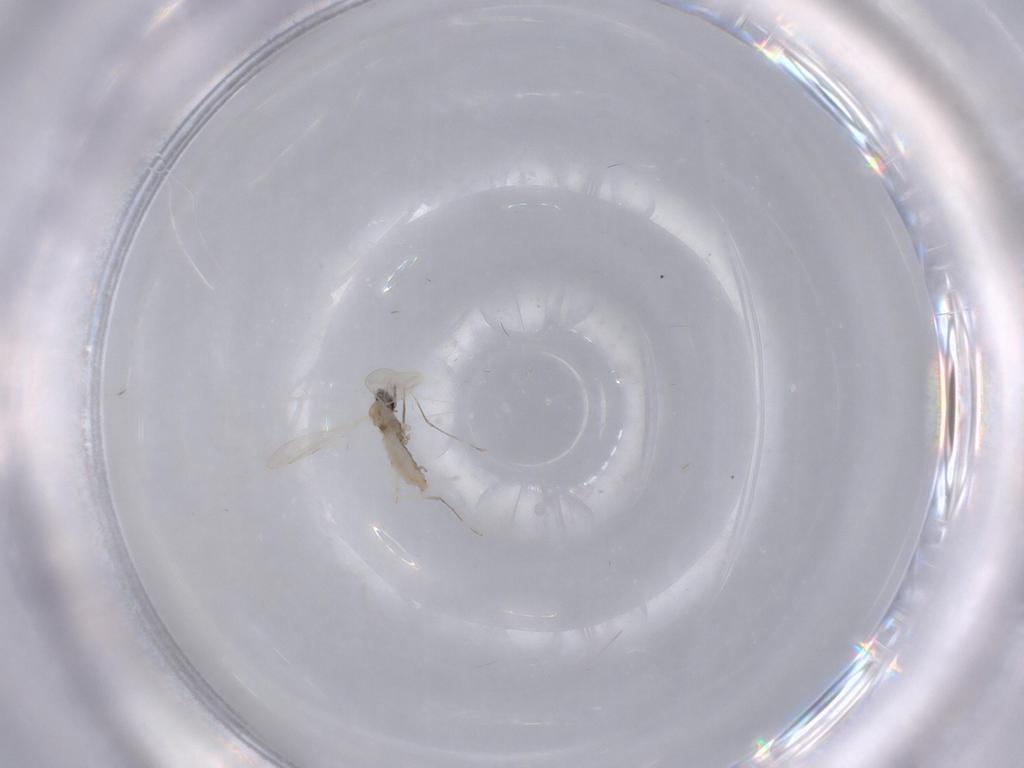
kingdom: Animalia
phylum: Arthropoda
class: Insecta
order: Diptera
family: Cecidomyiidae
